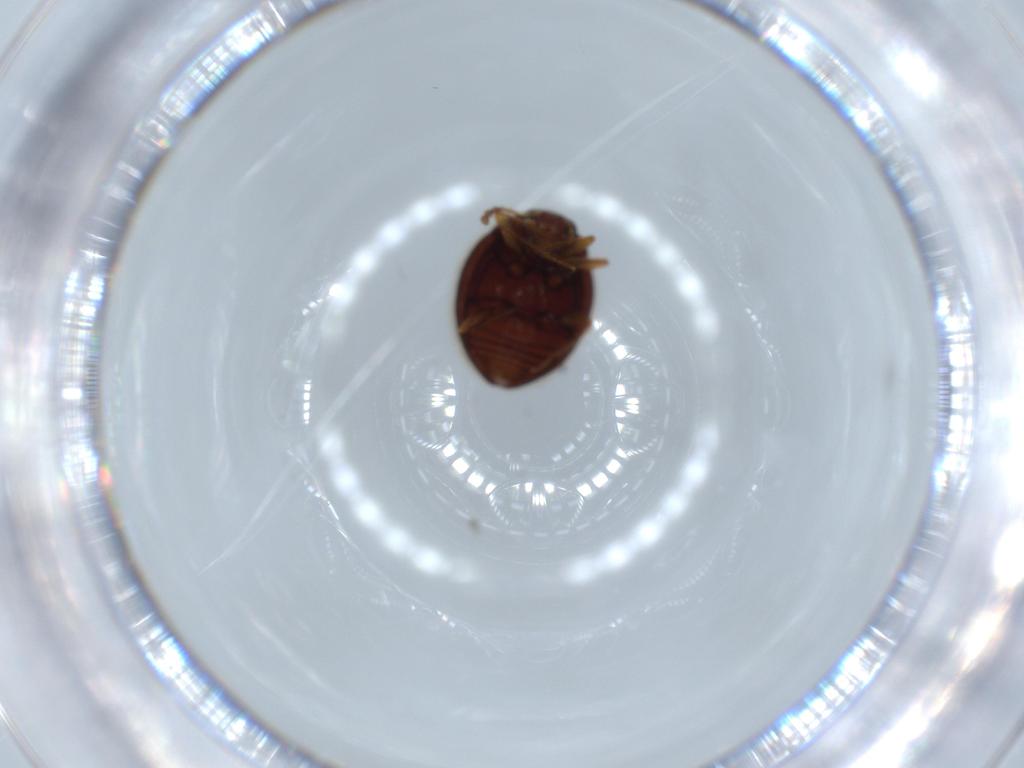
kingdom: Animalia
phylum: Arthropoda
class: Insecta
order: Coleoptera
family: Anamorphidae
